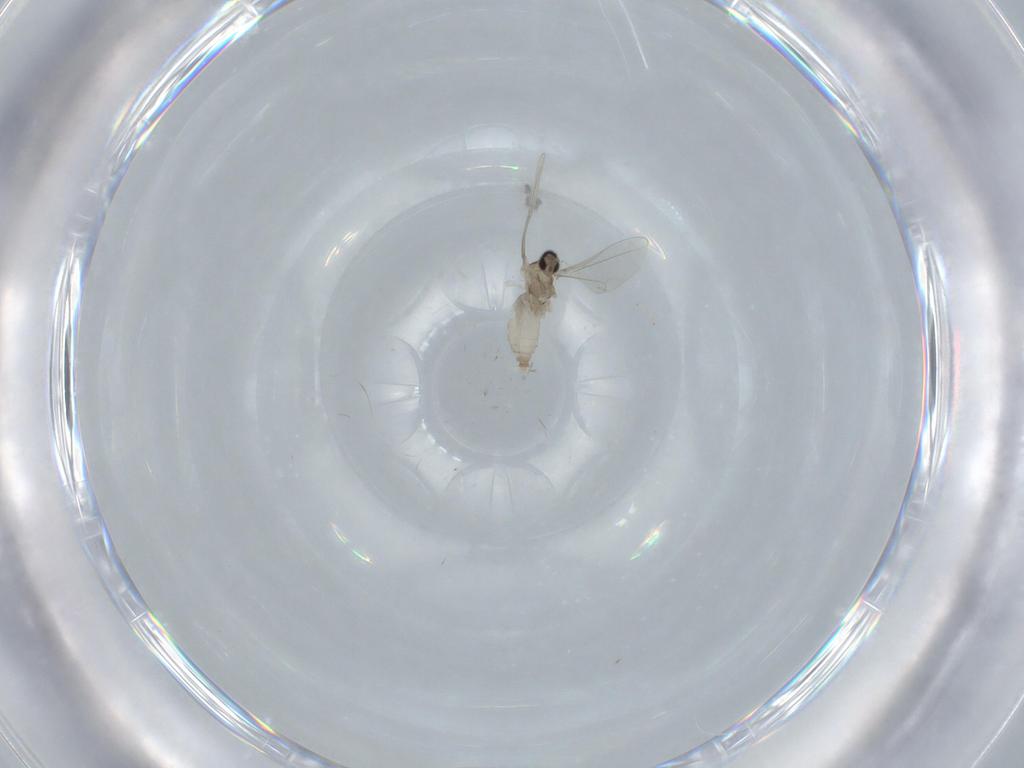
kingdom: Animalia
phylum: Arthropoda
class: Insecta
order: Diptera
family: Cecidomyiidae
